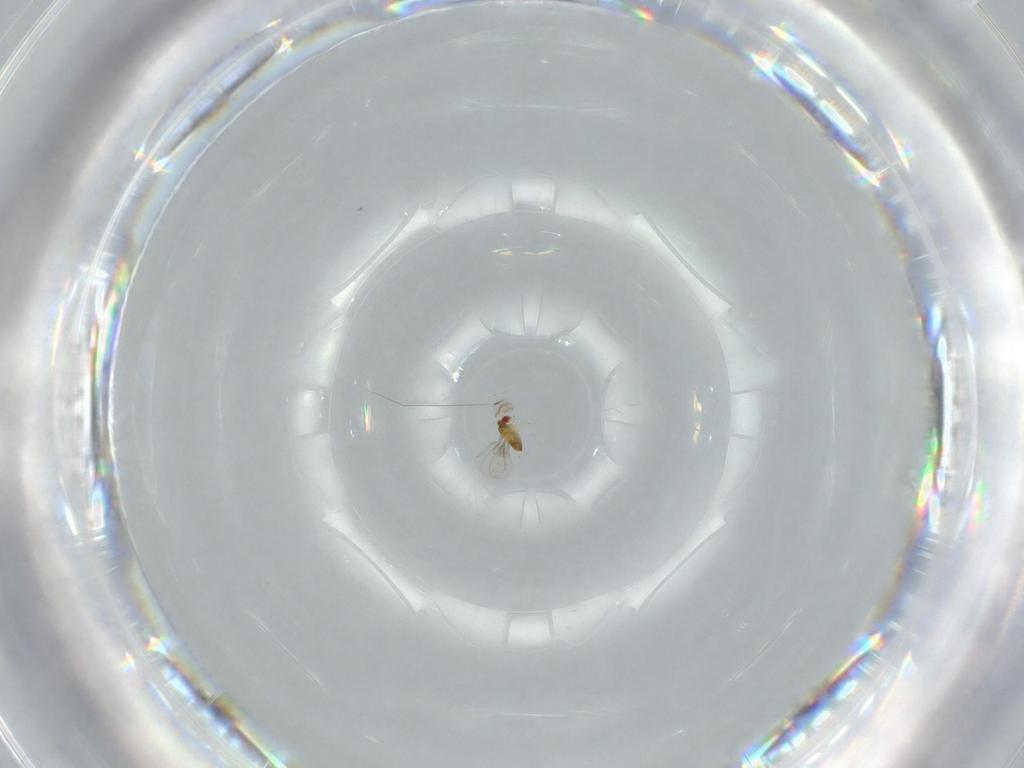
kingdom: Animalia
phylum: Arthropoda
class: Insecta
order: Hymenoptera
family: Trichogrammatidae
